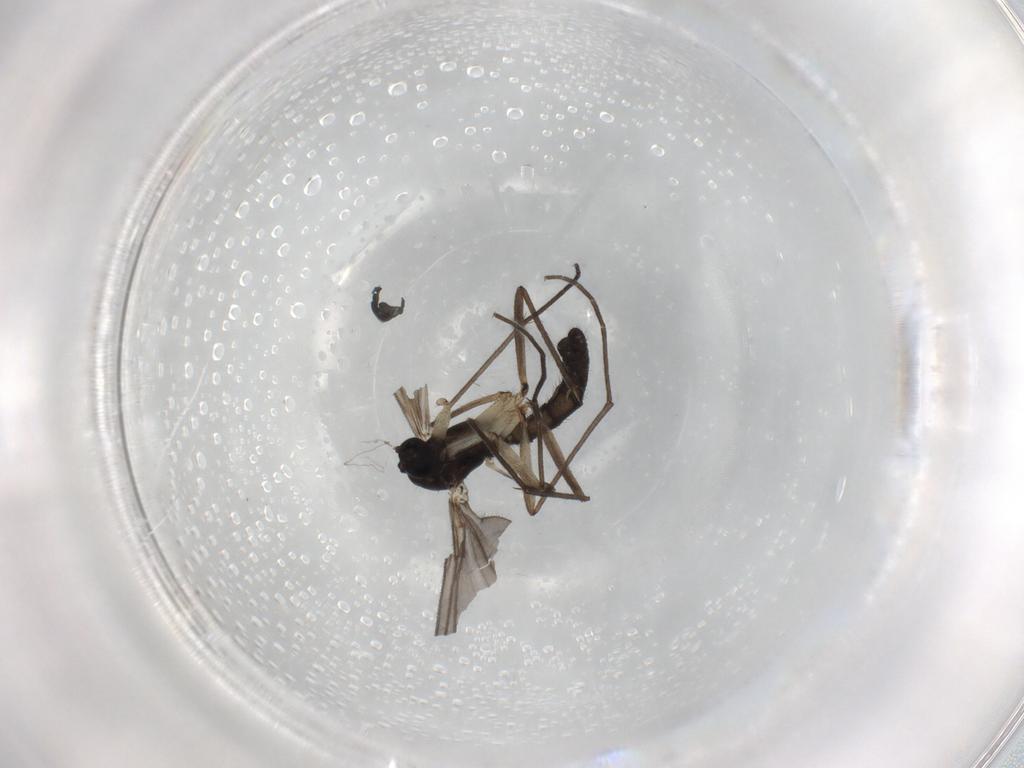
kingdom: Animalia
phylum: Arthropoda
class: Insecta
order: Diptera
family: Sciaridae
